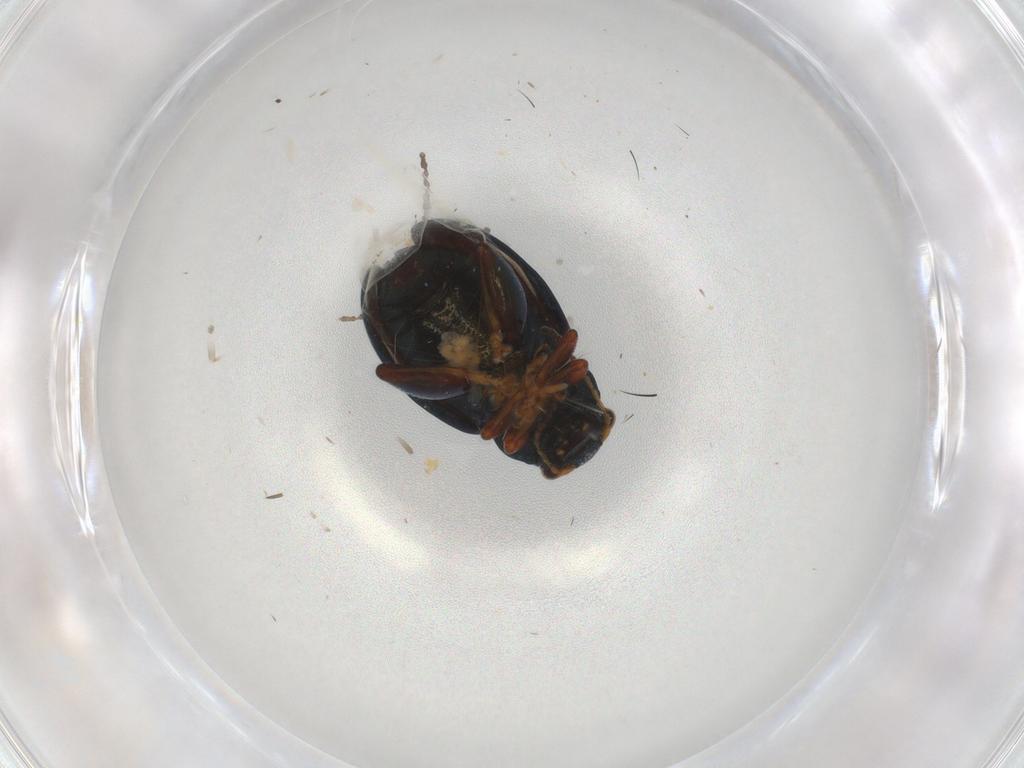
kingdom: Animalia
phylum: Arthropoda
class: Insecta
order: Coleoptera
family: Chrysomelidae
